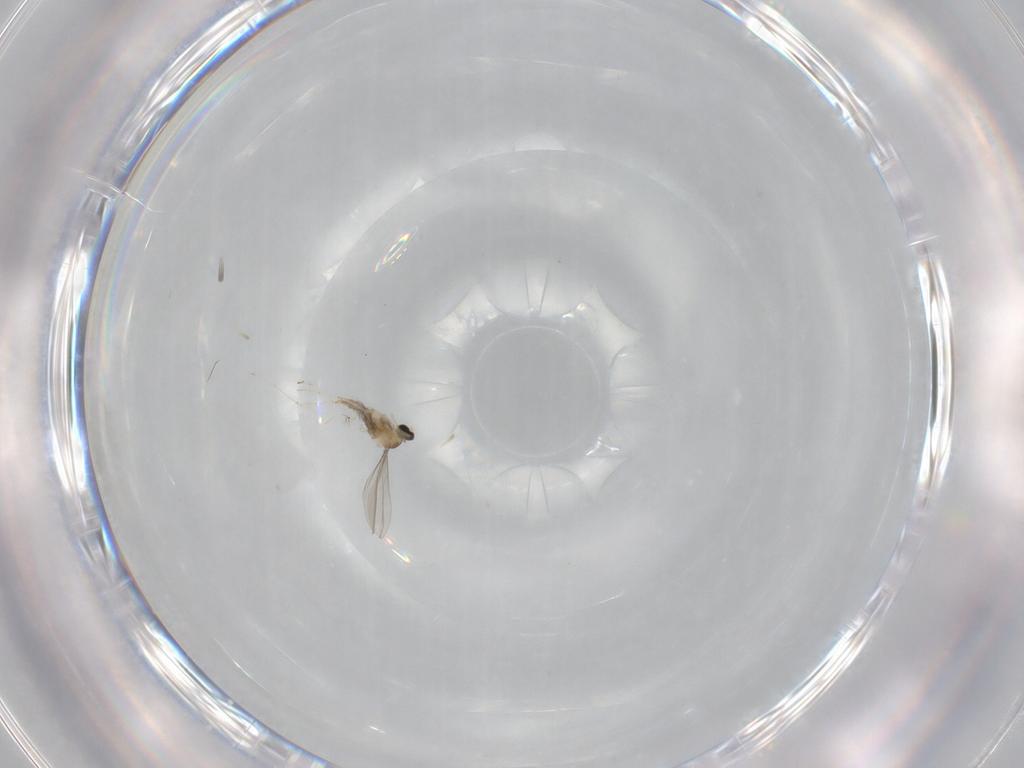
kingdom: Animalia
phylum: Arthropoda
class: Insecta
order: Diptera
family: Cecidomyiidae
